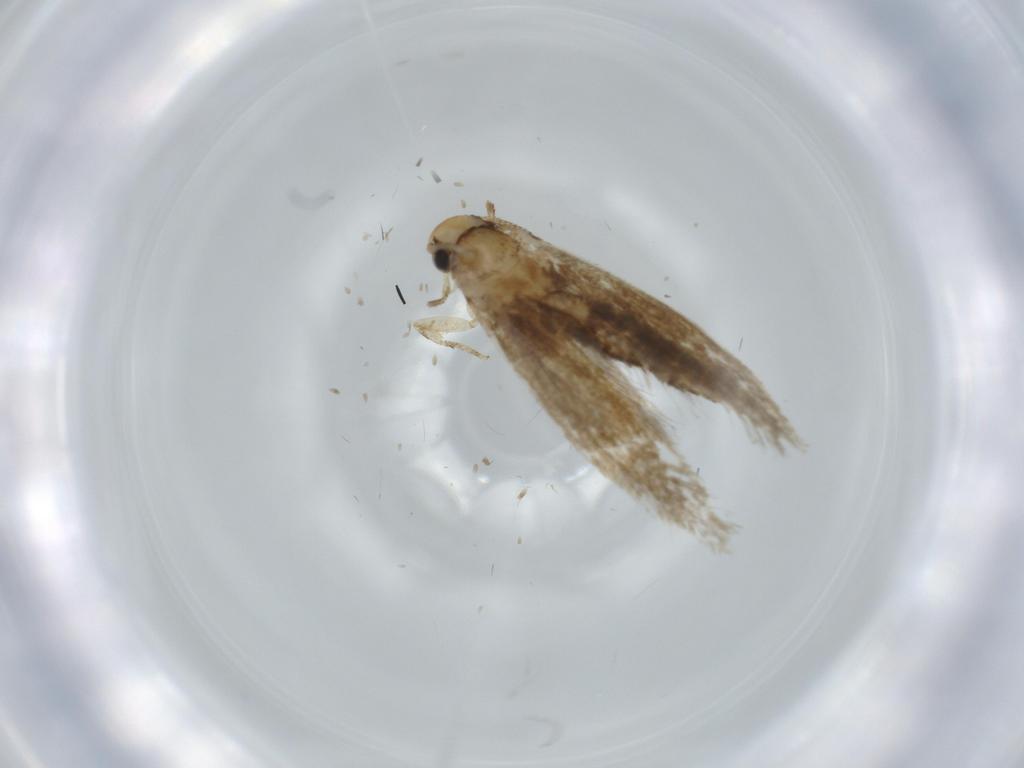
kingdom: Animalia
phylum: Arthropoda
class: Insecta
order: Lepidoptera
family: Tineidae
